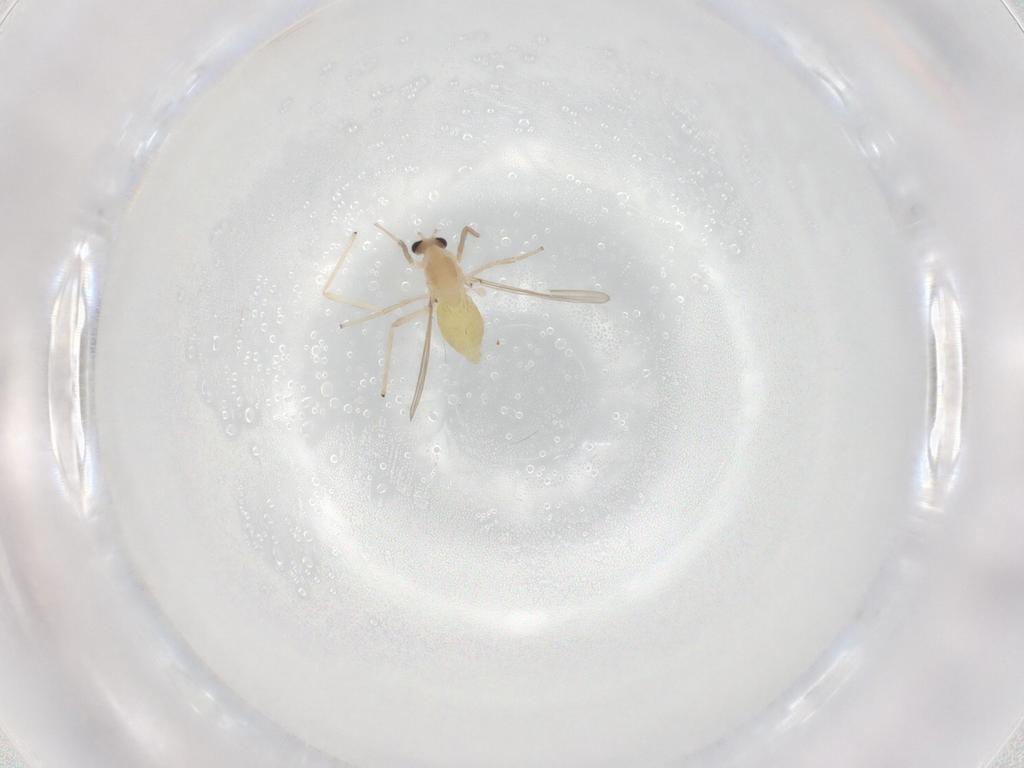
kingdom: Animalia
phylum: Arthropoda
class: Insecta
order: Diptera
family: Chironomidae
